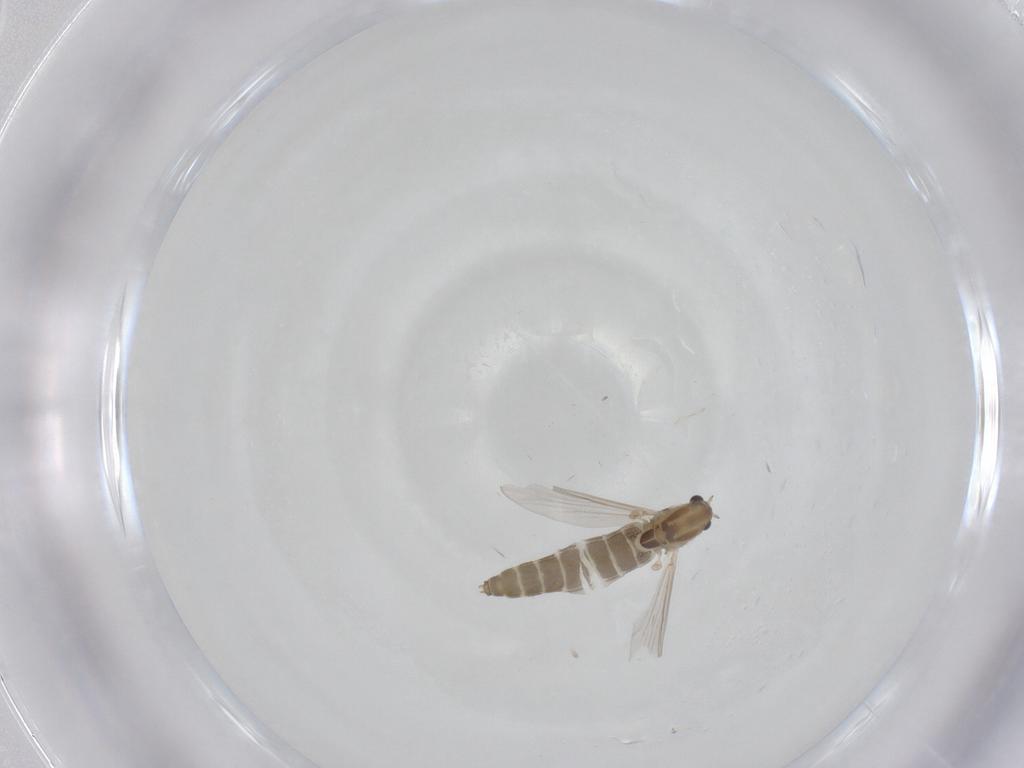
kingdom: Animalia
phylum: Arthropoda
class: Insecta
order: Diptera
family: Chironomidae
